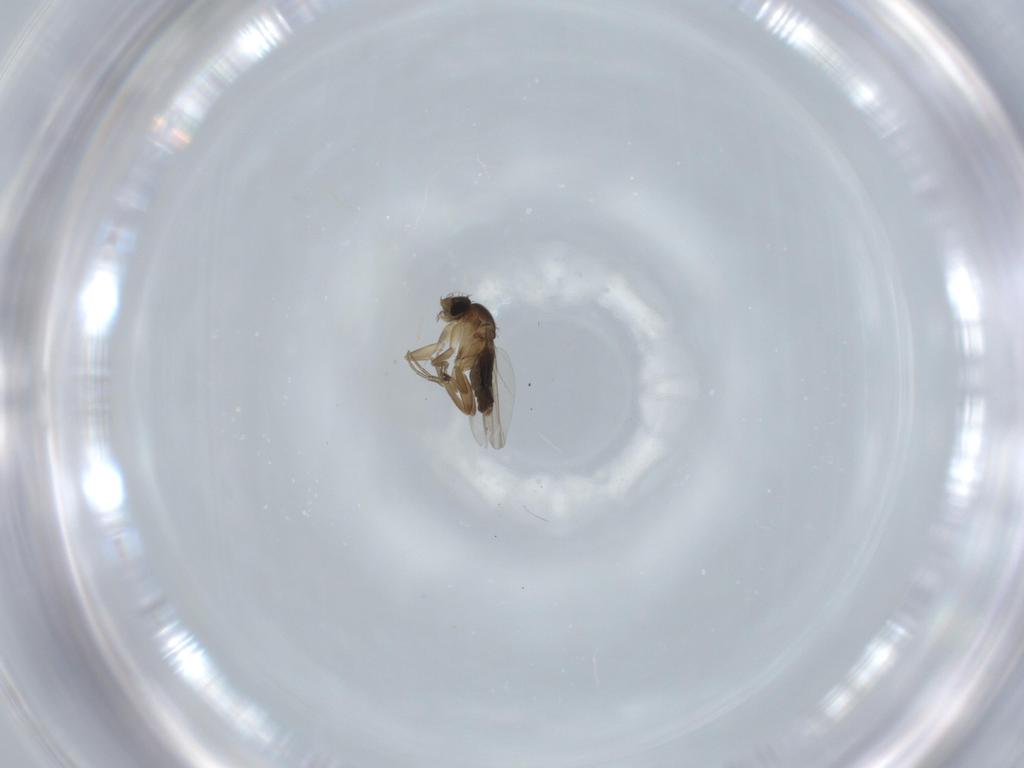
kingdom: Animalia
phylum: Arthropoda
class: Insecta
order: Diptera
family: Phoridae
